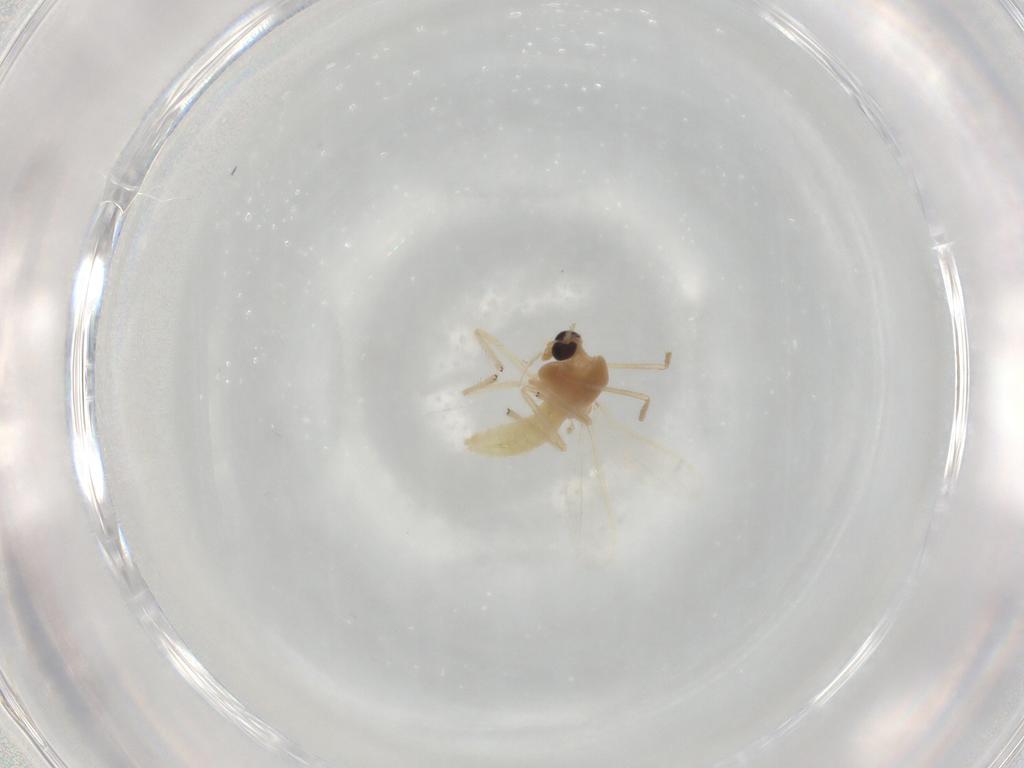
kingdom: Animalia
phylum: Arthropoda
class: Insecta
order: Diptera
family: Chironomidae
